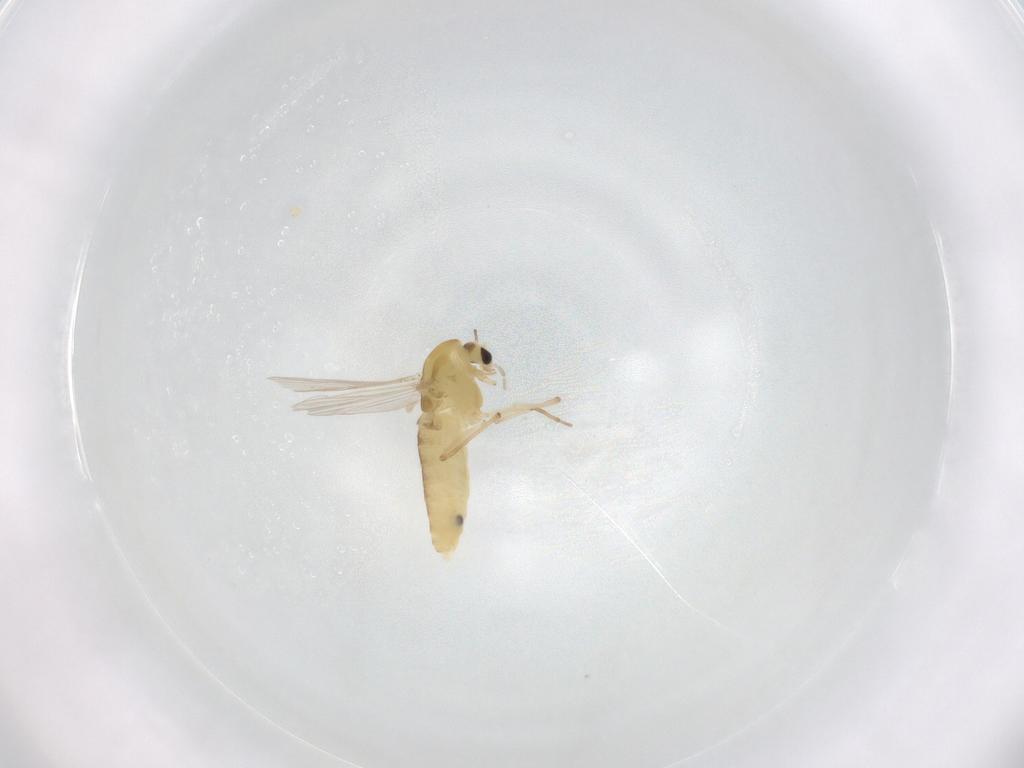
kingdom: Animalia
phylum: Arthropoda
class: Insecta
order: Diptera
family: Chironomidae
